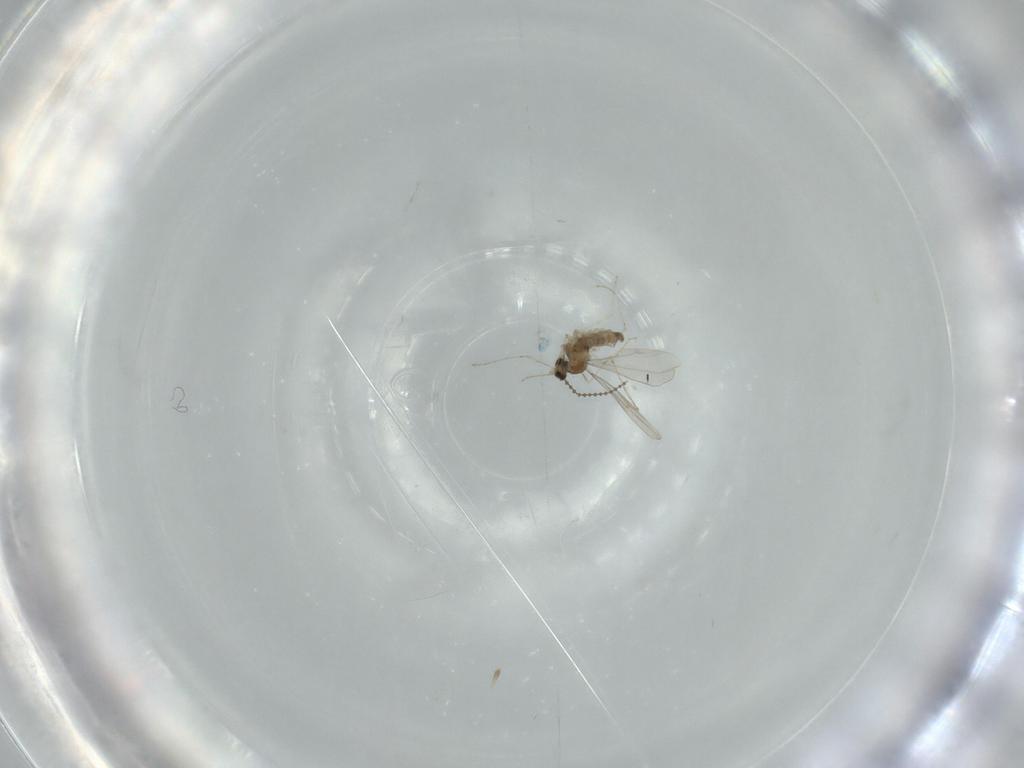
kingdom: Animalia
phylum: Arthropoda
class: Insecta
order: Diptera
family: Cecidomyiidae
